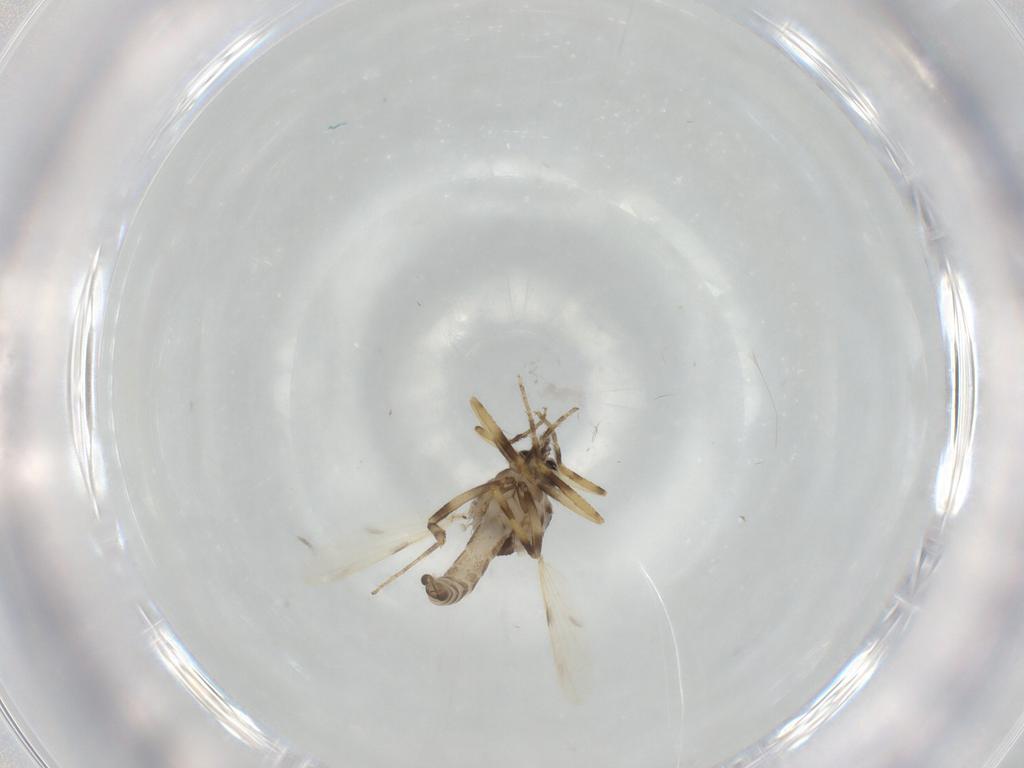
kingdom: Animalia
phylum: Arthropoda
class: Insecta
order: Diptera
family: Ceratopogonidae
